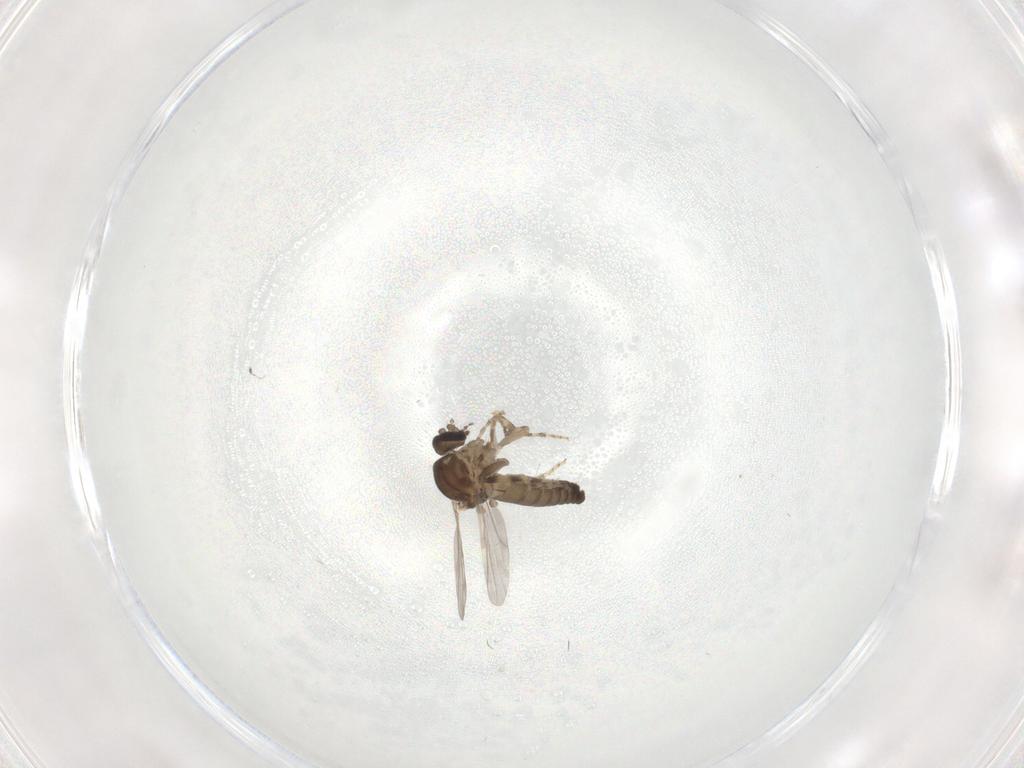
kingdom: Animalia
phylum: Arthropoda
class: Insecta
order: Diptera
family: Ceratopogonidae
